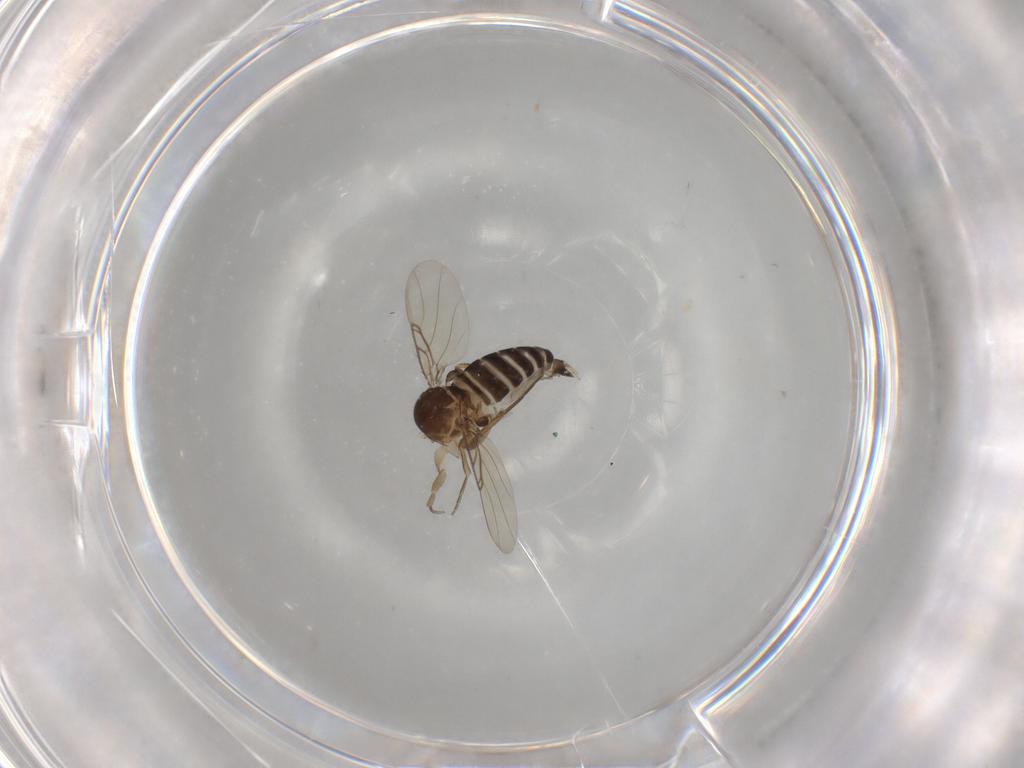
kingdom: Animalia
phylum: Arthropoda
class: Insecta
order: Diptera
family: Phoridae
